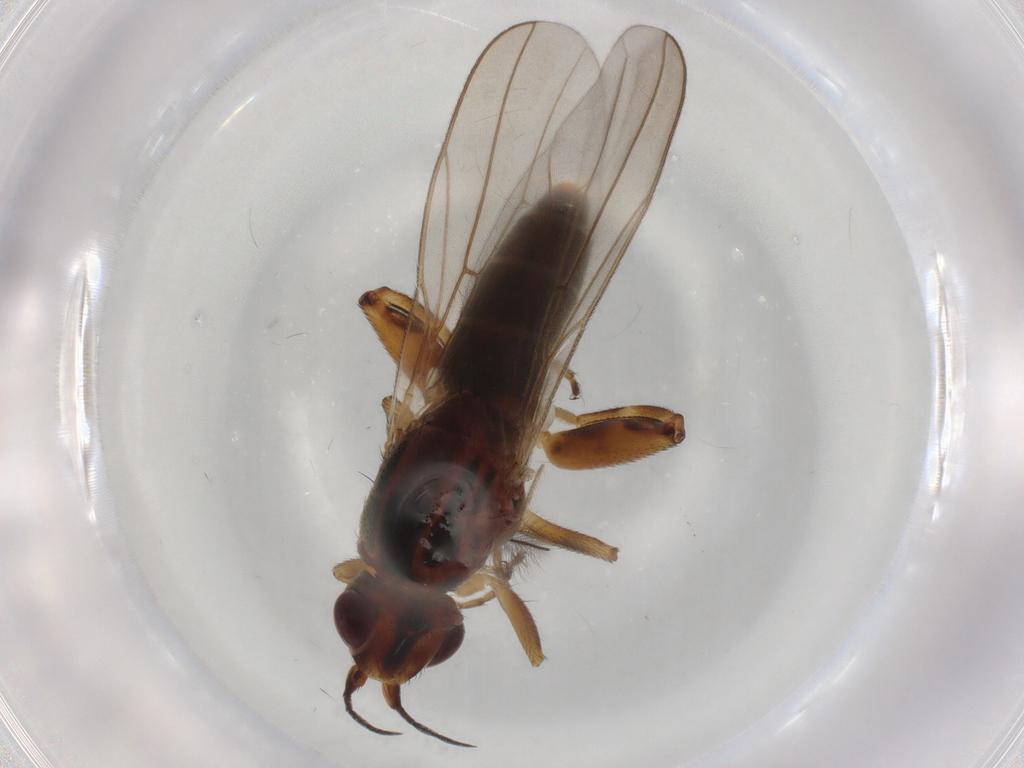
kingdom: Animalia
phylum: Arthropoda
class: Insecta
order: Diptera
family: Chloropidae
